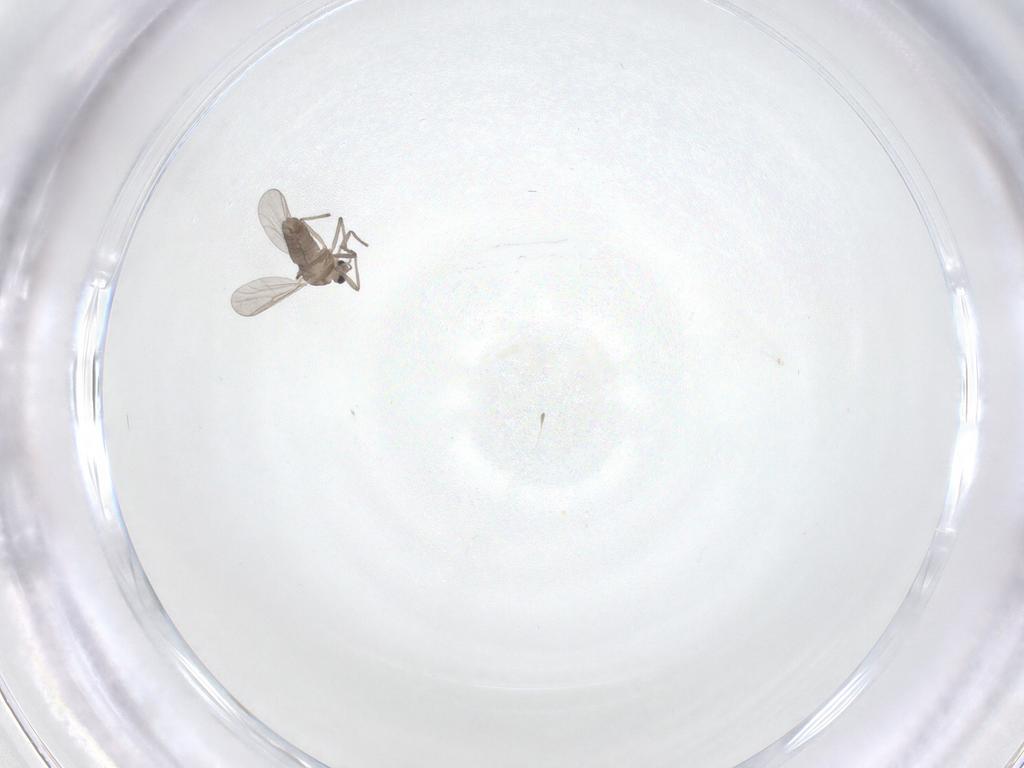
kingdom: Animalia
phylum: Arthropoda
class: Insecta
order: Diptera
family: Chironomidae
